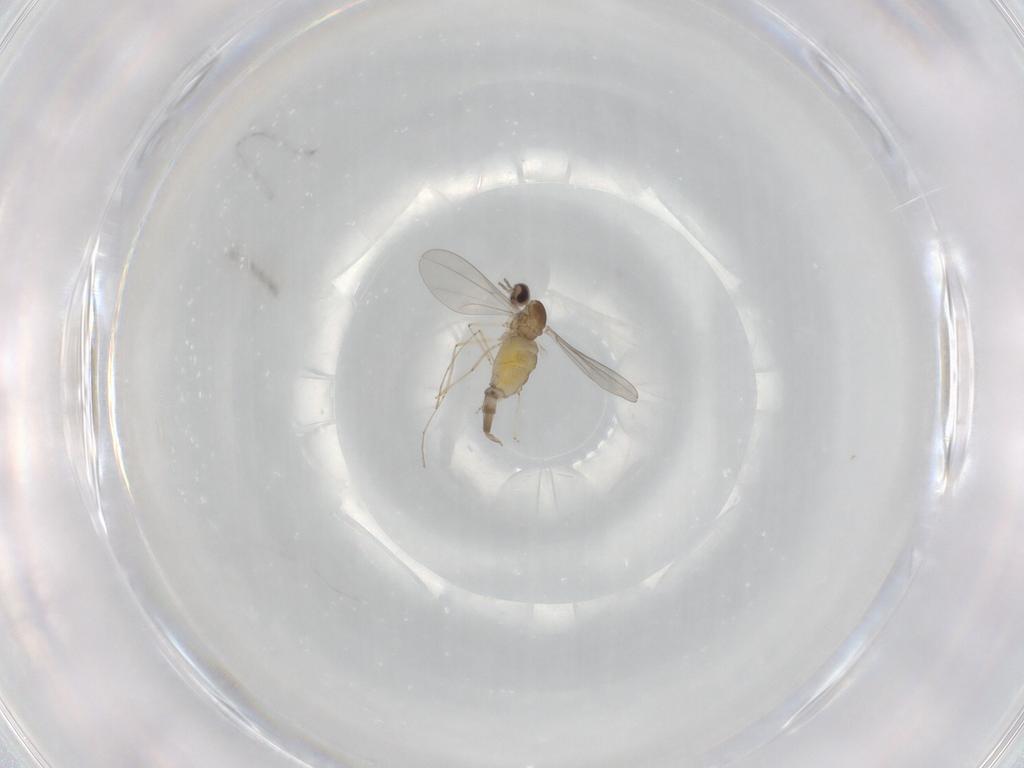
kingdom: Animalia
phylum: Arthropoda
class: Insecta
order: Diptera
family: Cecidomyiidae
